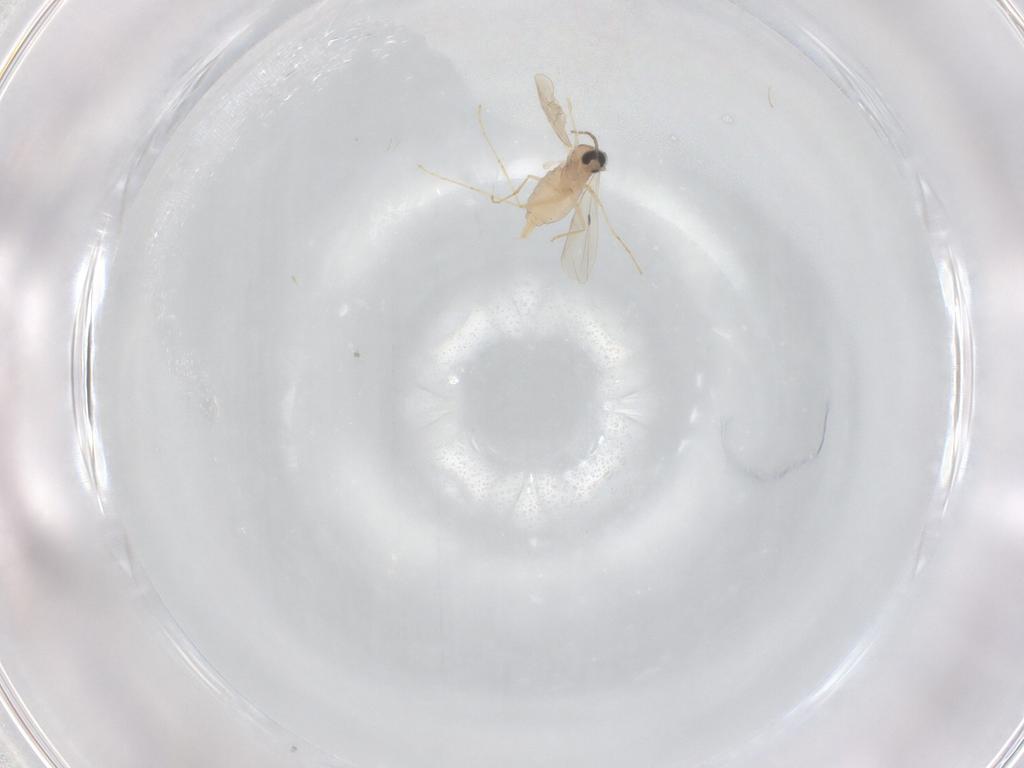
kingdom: Animalia
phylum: Arthropoda
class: Insecta
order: Diptera
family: Cecidomyiidae
